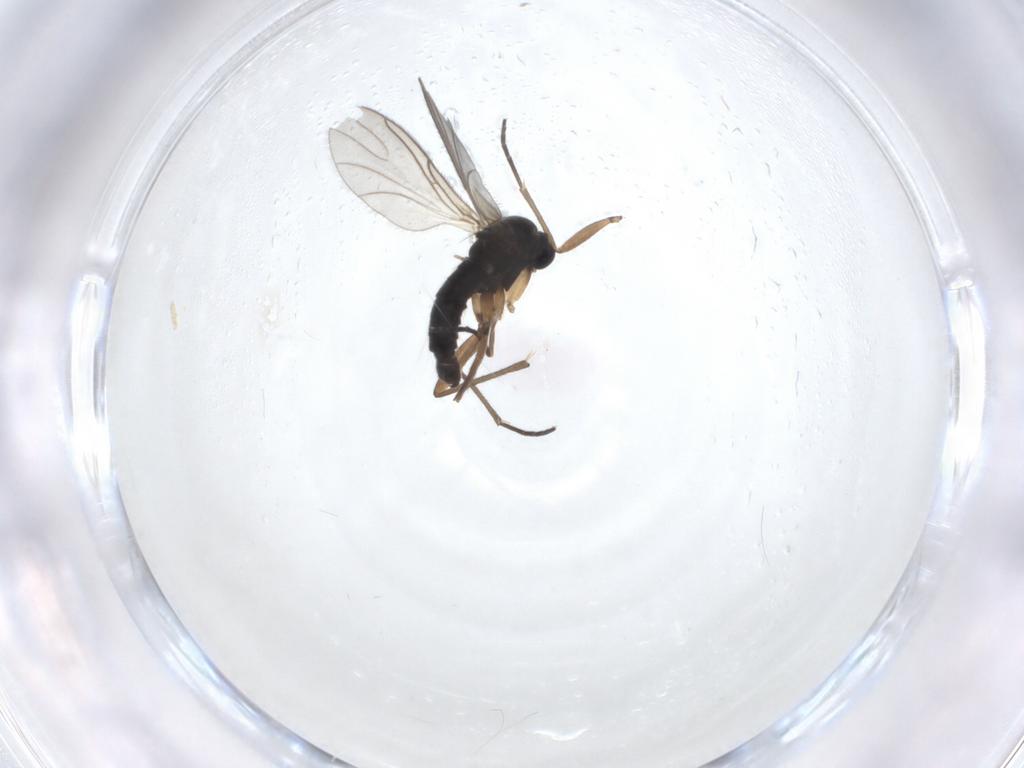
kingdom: Animalia
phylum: Arthropoda
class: Insecta
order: Diptera
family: Sciaridae
